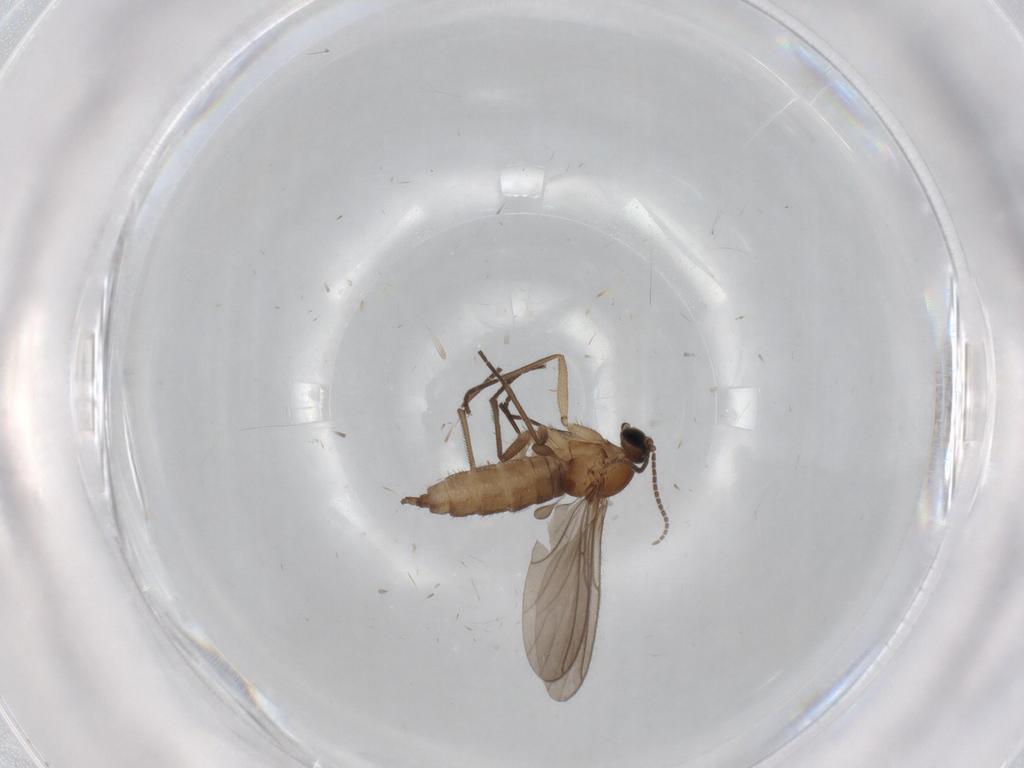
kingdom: Animalia
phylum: Arthropoda
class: Insecta
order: Diptera
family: Sciaridae
